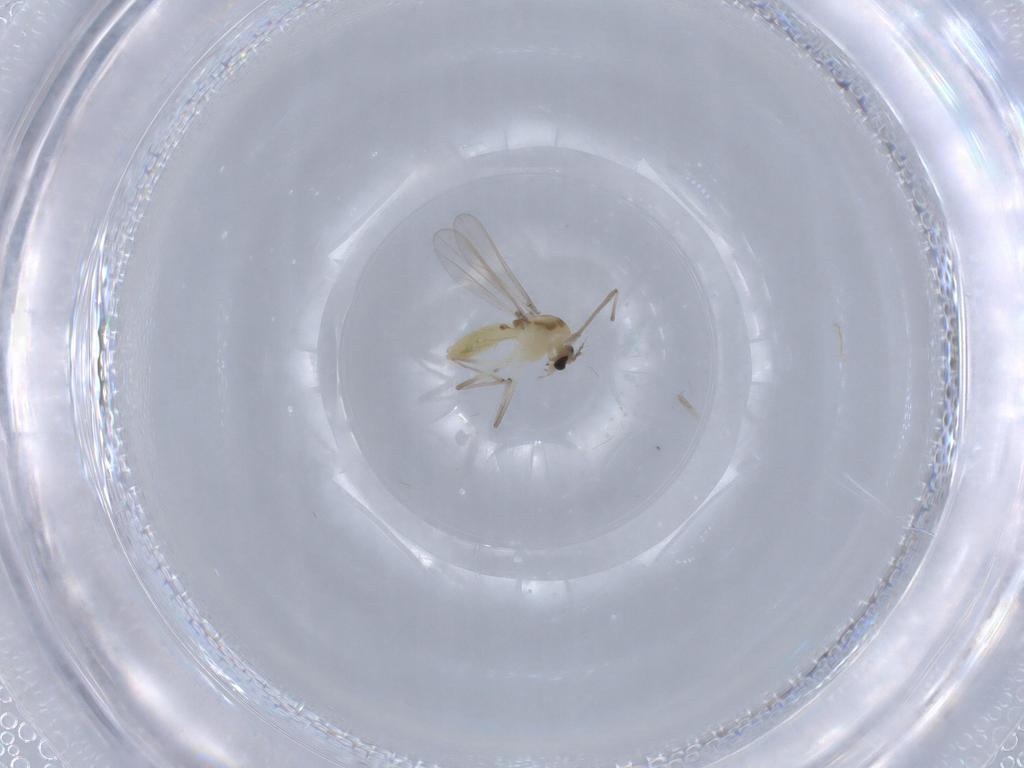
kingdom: Animalia
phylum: Arthropoda
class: Insecta
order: Diptera
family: Chironomidae
